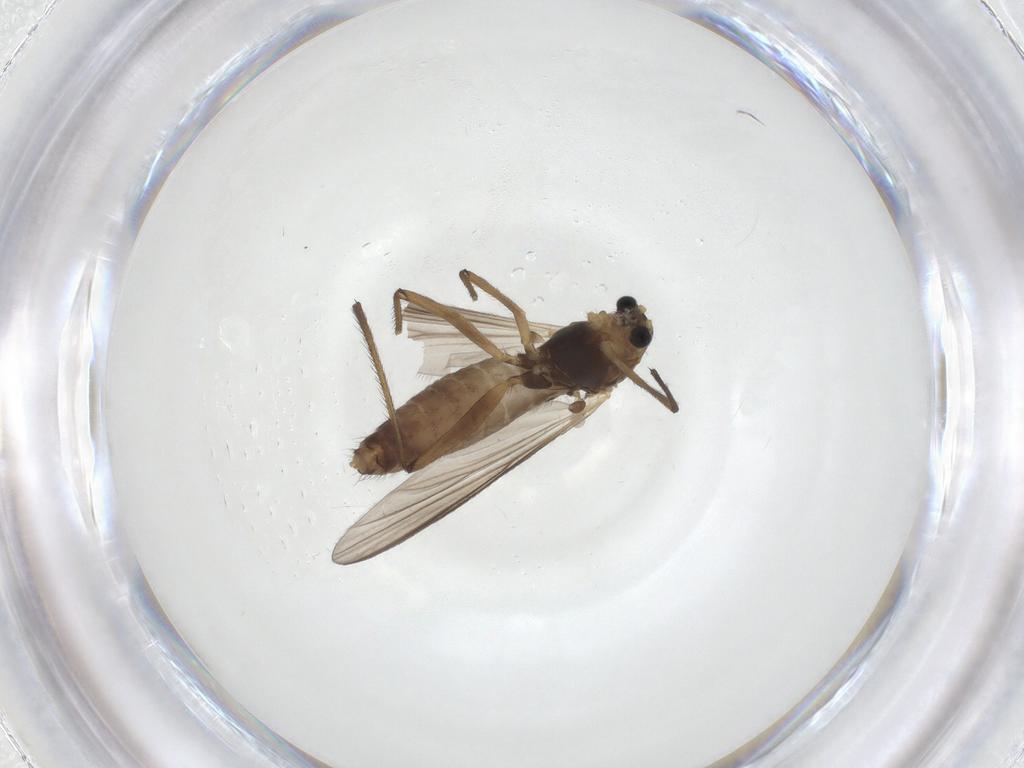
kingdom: Animalia
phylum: Arthropoda
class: Insecta
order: Diptera
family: Chironomidae
